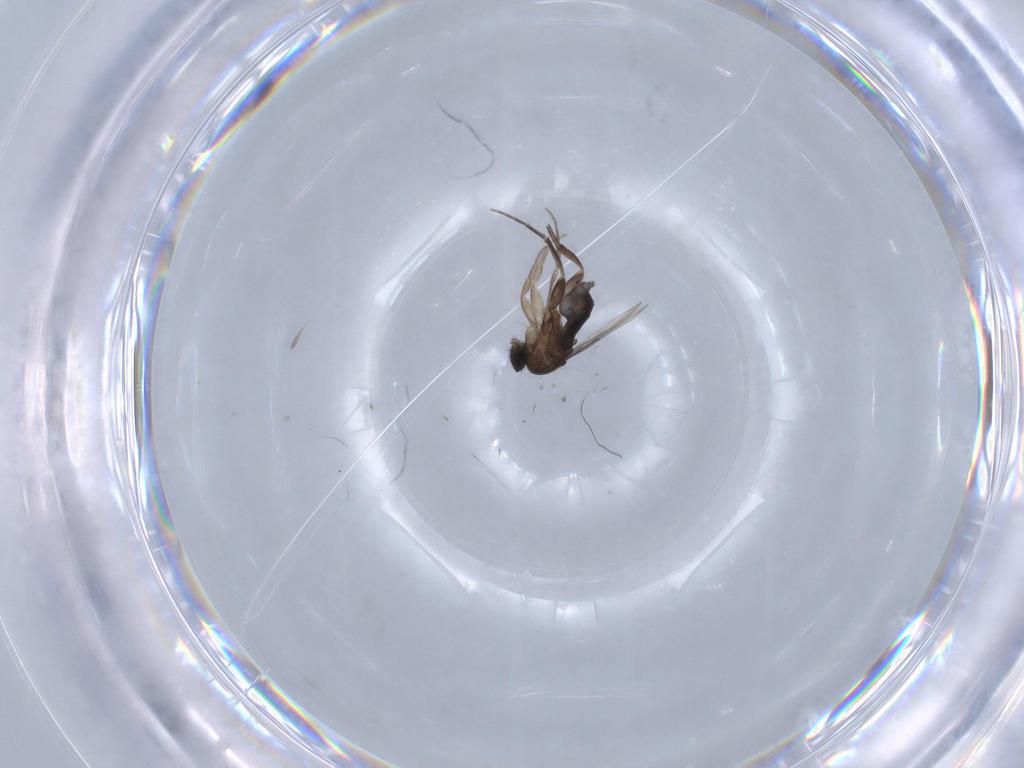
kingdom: Animalia
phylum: Arthropoda
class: Insecta
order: Diptera
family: Phoridae
